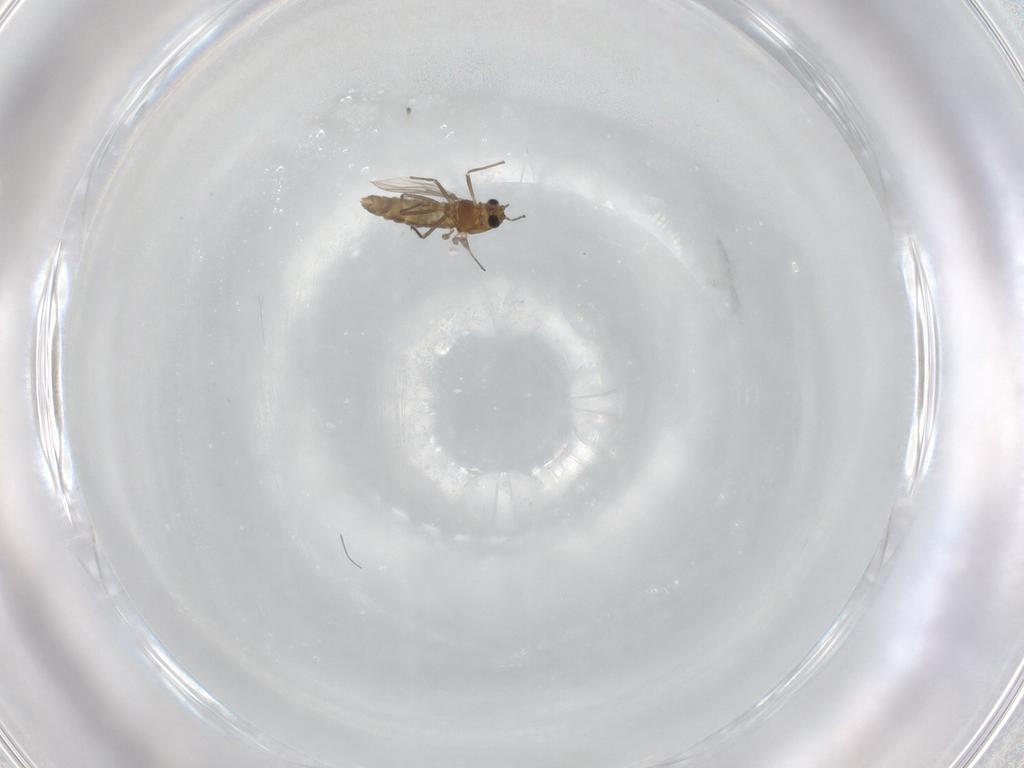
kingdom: Animalia
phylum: Arthropoda
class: Insecta
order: Diptera
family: Chironomidae
